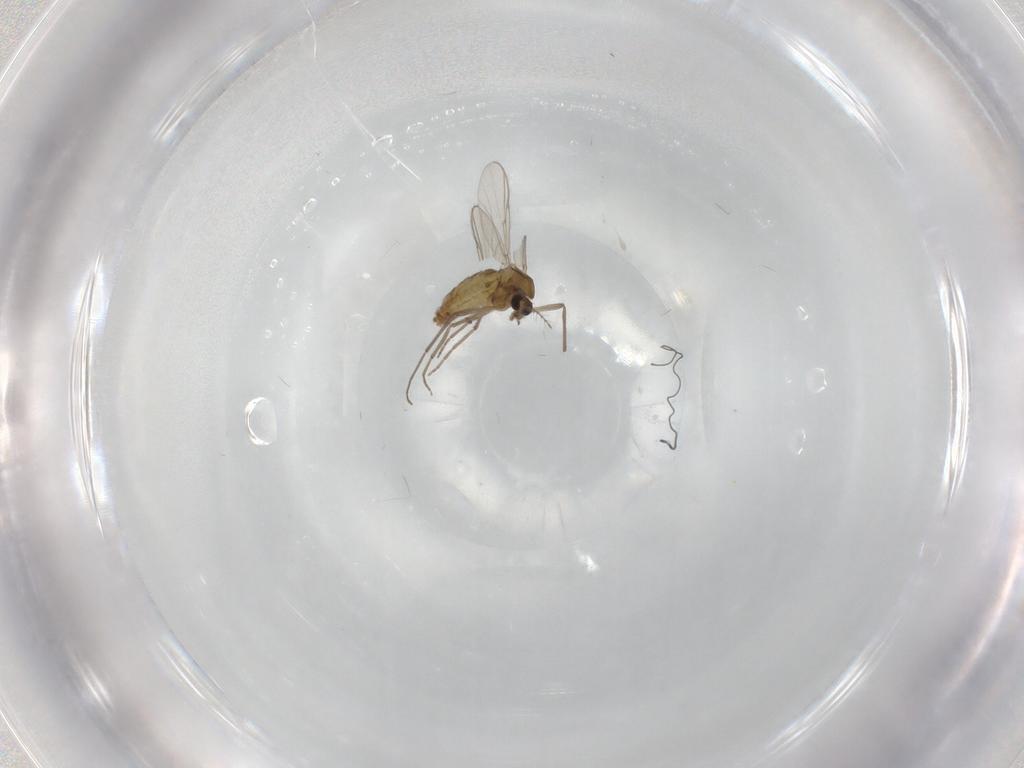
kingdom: Animalia
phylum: Arthropoda
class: Insecta
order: Diptera
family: Chironomidae
